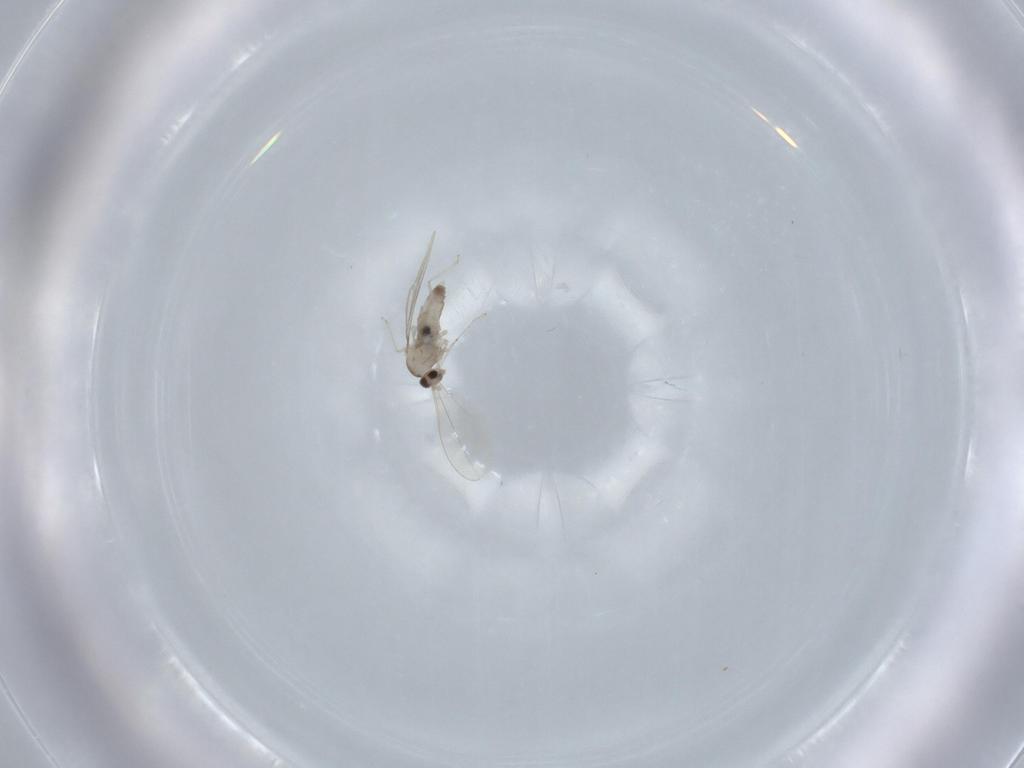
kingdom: Animalia
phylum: Arthropoda
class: Insecta
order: Diptera
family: Cecidomyiidae
